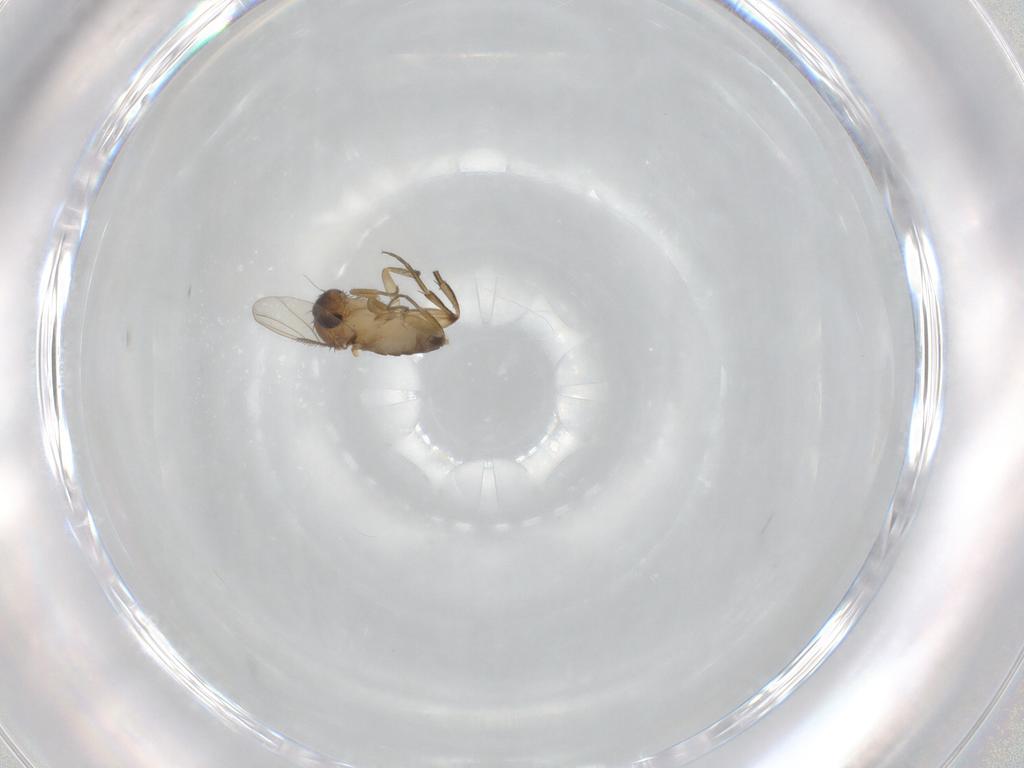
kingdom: Animalia
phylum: Arthropoda
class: Insecta
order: Diptera
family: Phoridae
